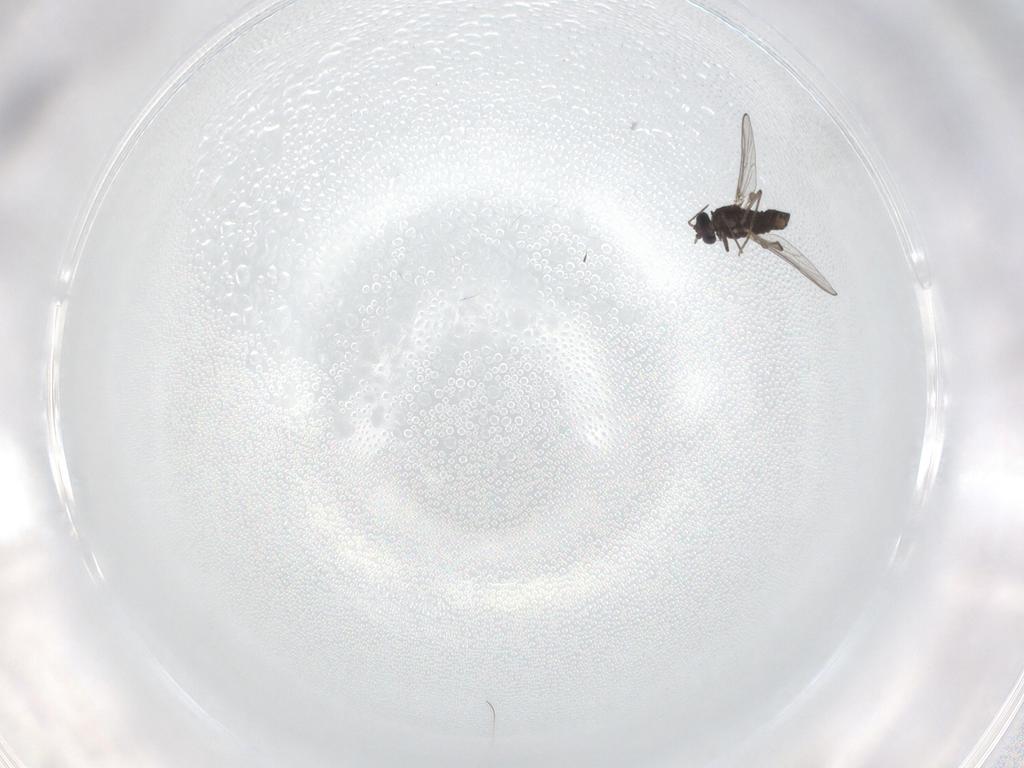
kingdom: Animalia
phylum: Arthropoda
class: Insecta
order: Diptera
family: Chironomidae
